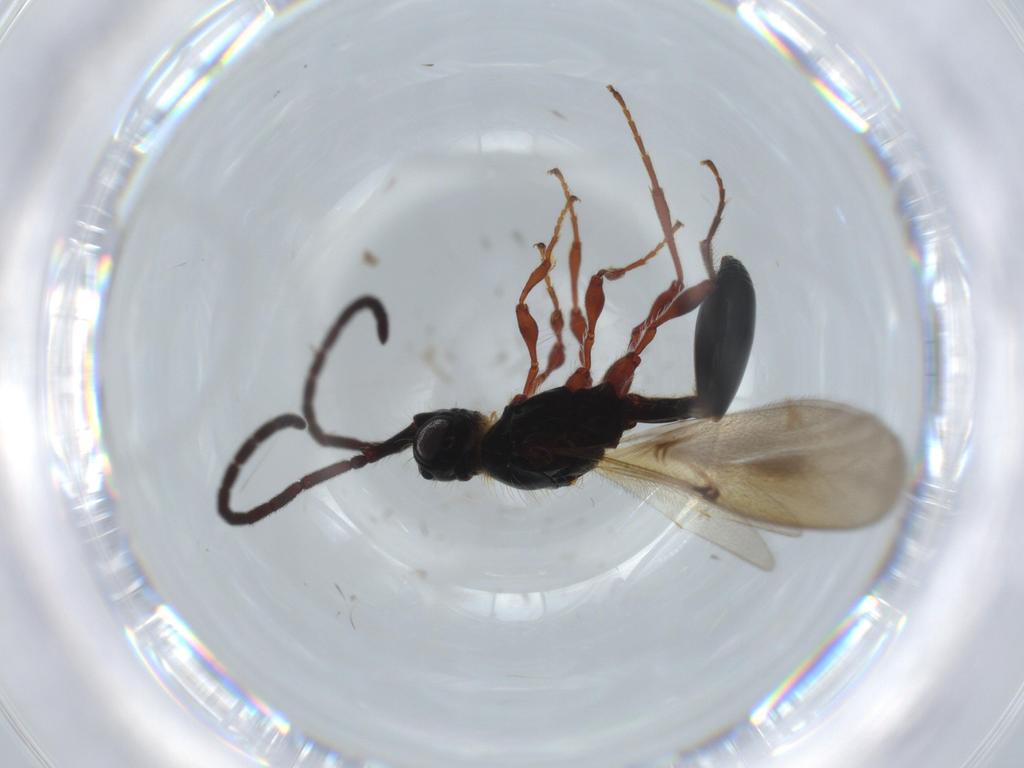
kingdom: Animalia
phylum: Arthropoda
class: Insecta
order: Hymenoptera
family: Diapriidae
